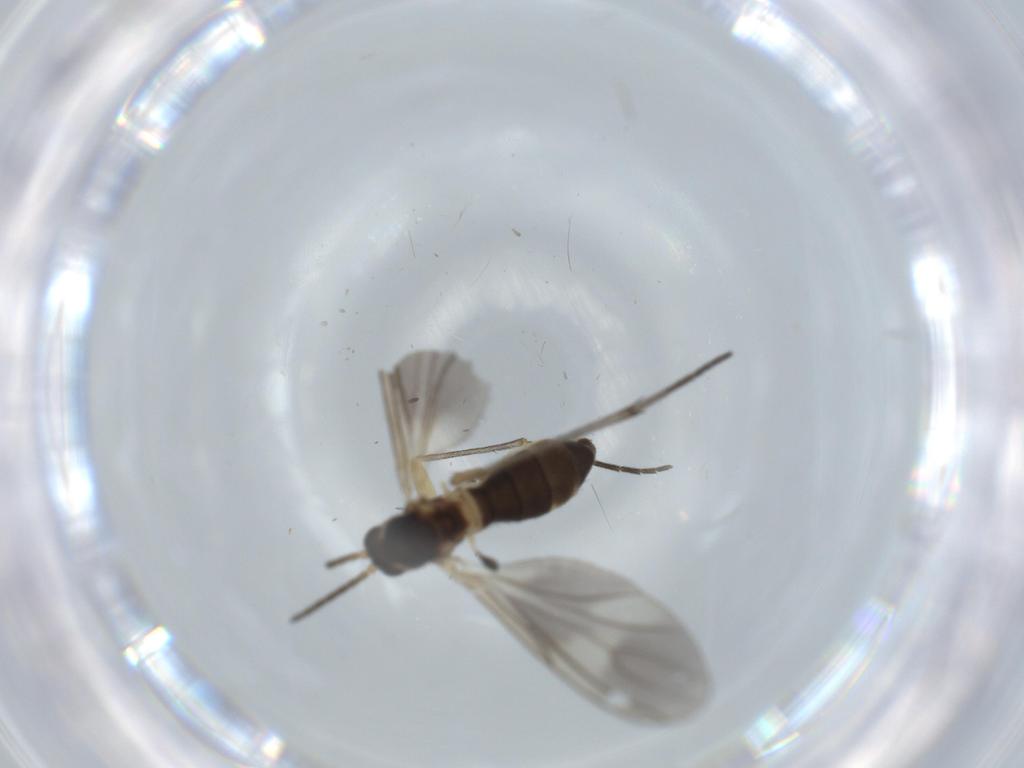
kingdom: Animalia
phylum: Arthropoda
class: Insecta
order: Diptera
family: Sciaridae
